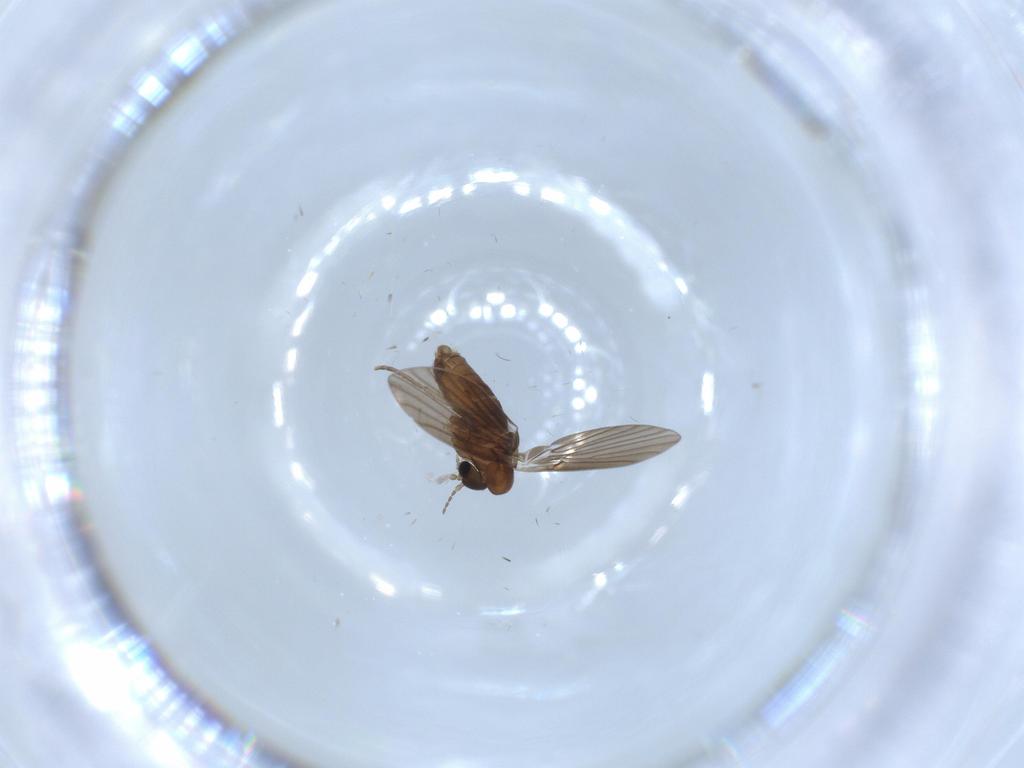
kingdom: Animalia
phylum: Arthropoda
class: Insecta
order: Diptera
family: Psychodidae
